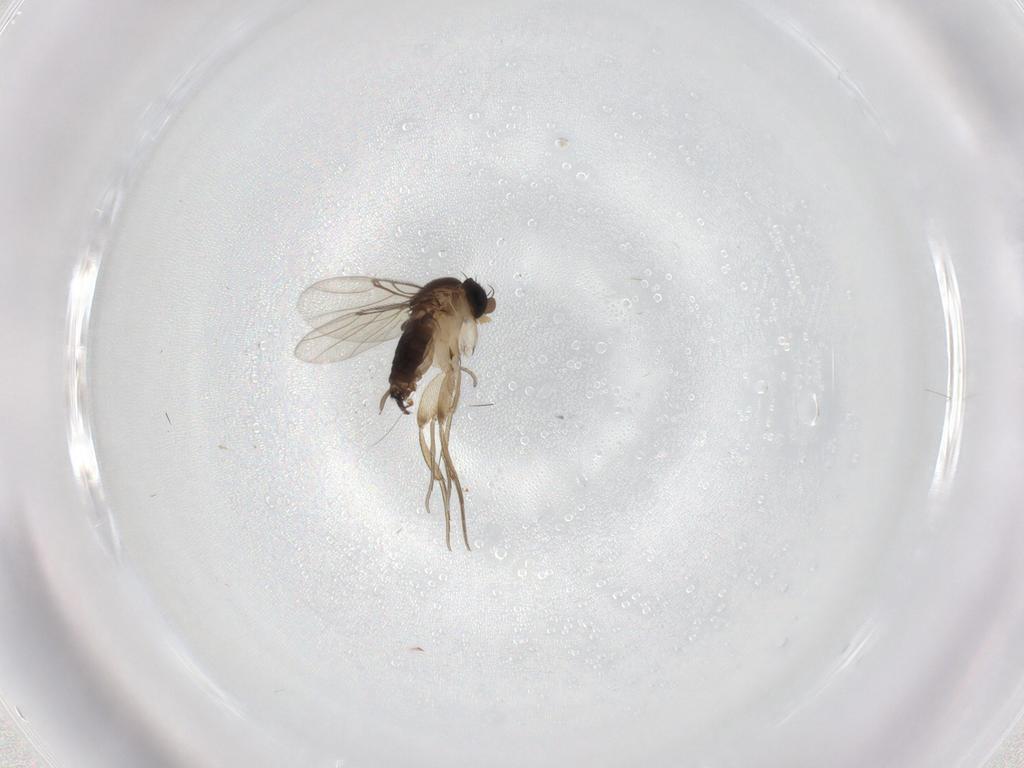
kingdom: Animalia
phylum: Arthropoda
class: Insecta
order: Diptera
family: Phoridae
